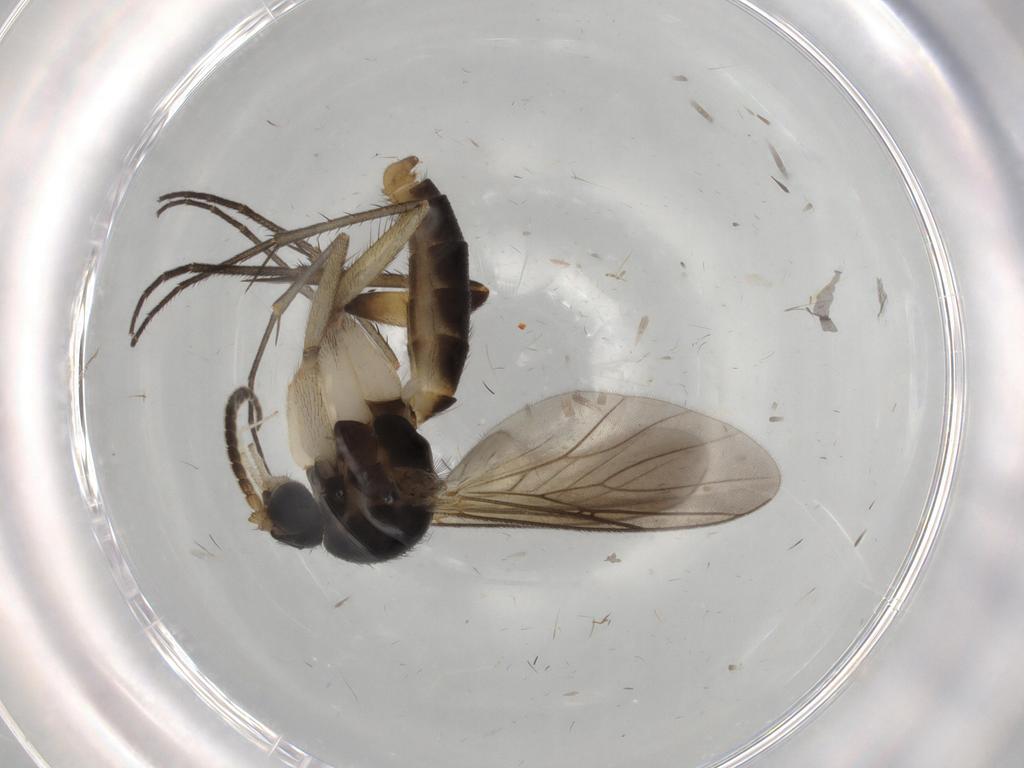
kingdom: Animalia
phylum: Arthropoda
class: Insecta
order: Diptera
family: Mycetophilidae
